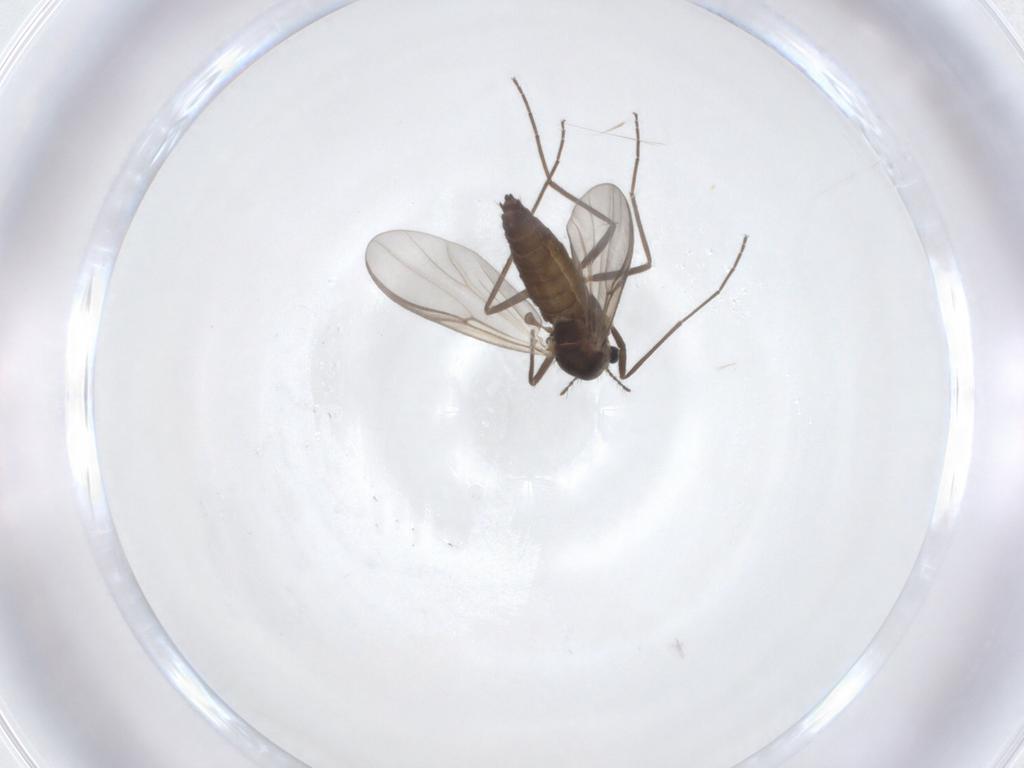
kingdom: Animalia
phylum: Arthropoda
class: Insecta
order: Diptera
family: Chironomidae
